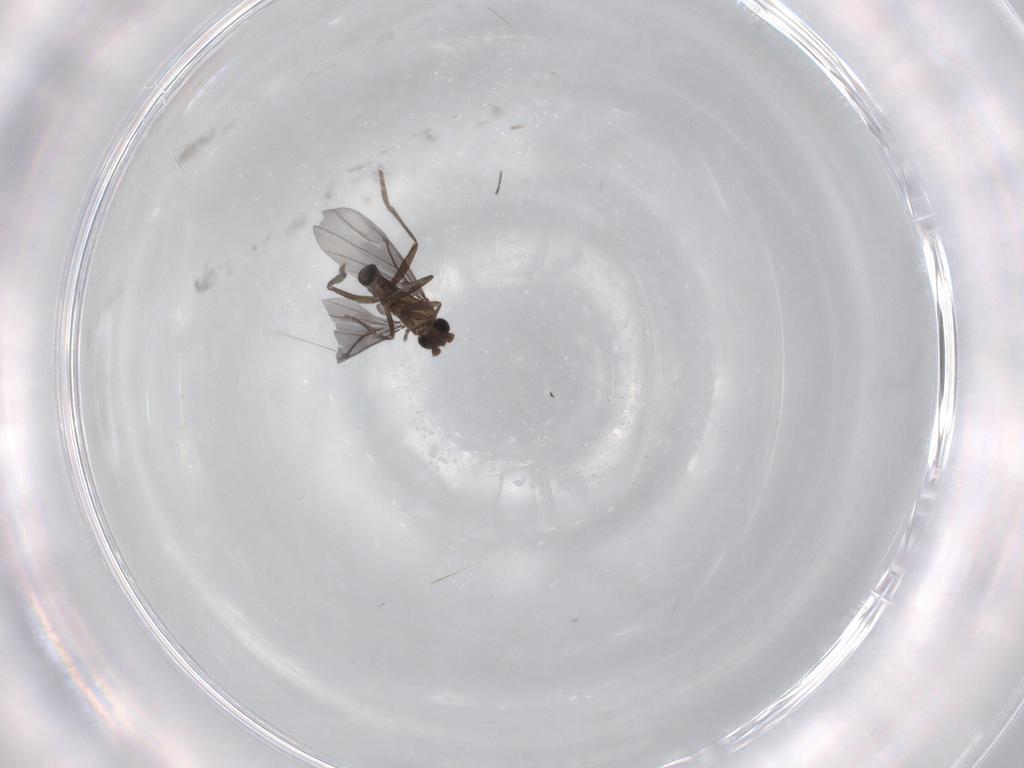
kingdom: Animalia
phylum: Arthropoda
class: Insecta
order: Diptera
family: Phoridae
